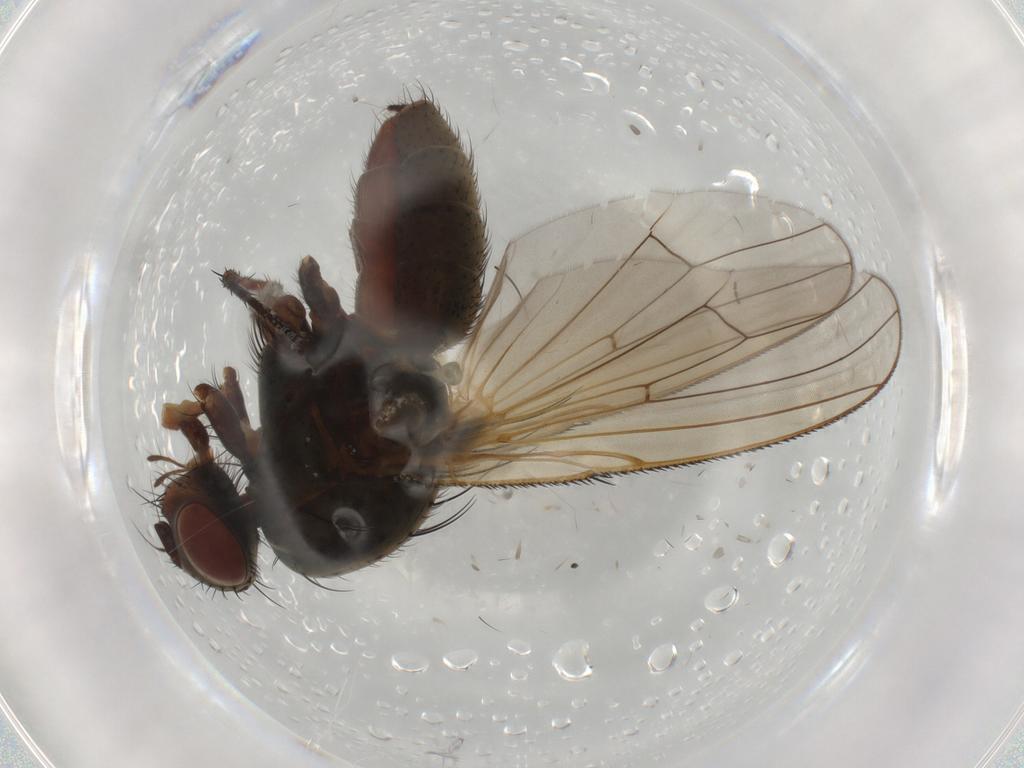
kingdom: Animalia
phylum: Arthropoda
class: Insecta
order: Diptera
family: Anthomyiidae
